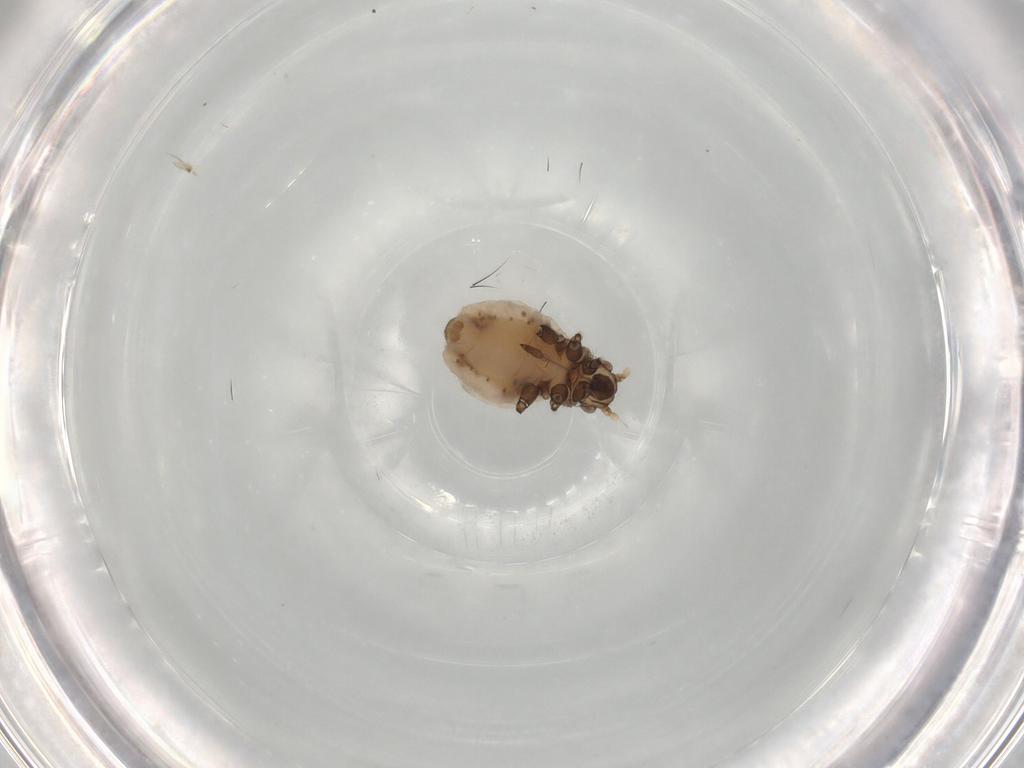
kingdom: Animalia
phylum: Arthropoda
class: Insecta
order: Hemiptera
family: Aphididae
